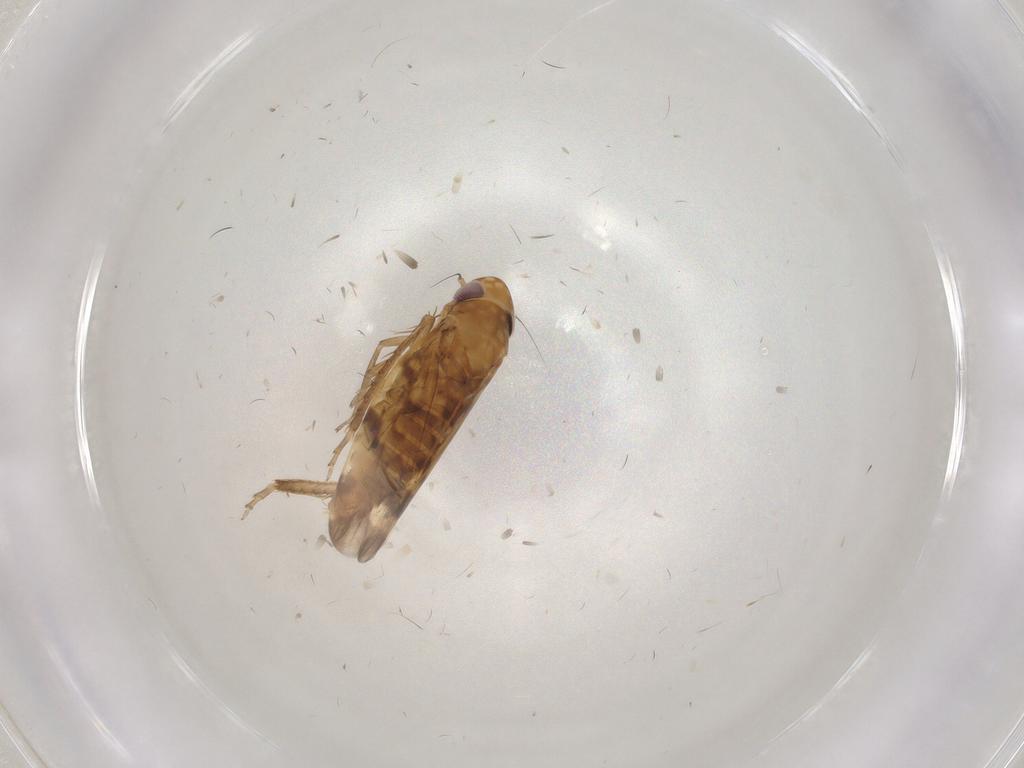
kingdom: Animalia
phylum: Arthropoda
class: Insecta
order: Hemiptera
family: Cicadellidae
